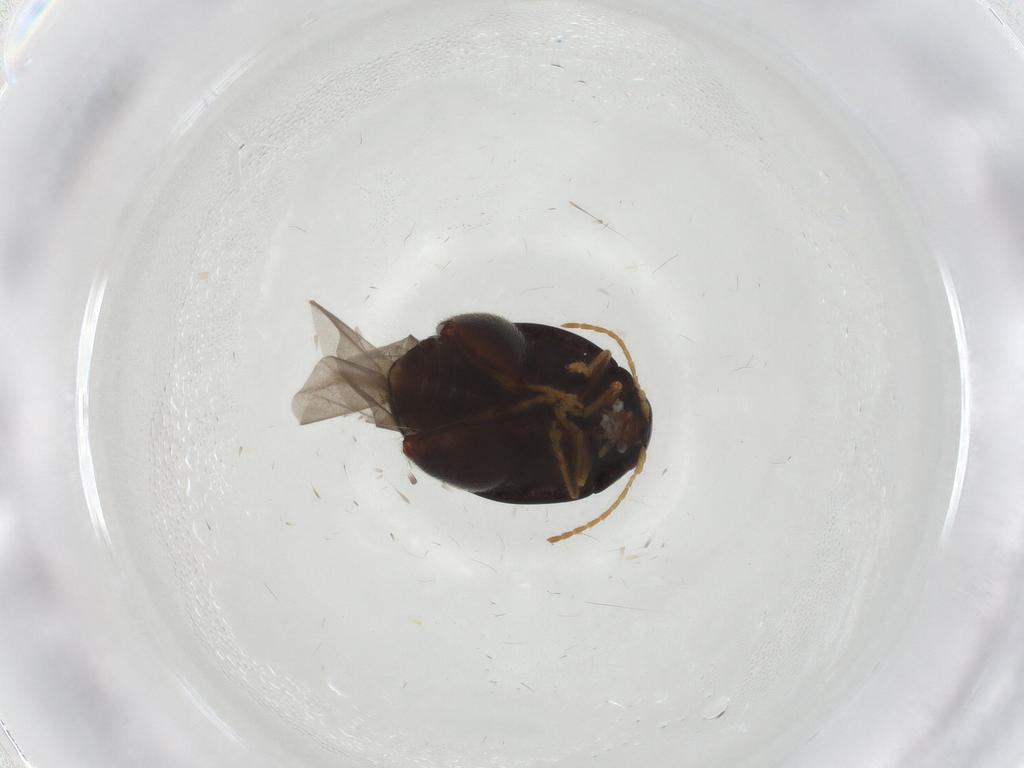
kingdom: Animalia
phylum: Arthropoda
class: Insecta
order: Coleoptera
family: Chrysomelidae
